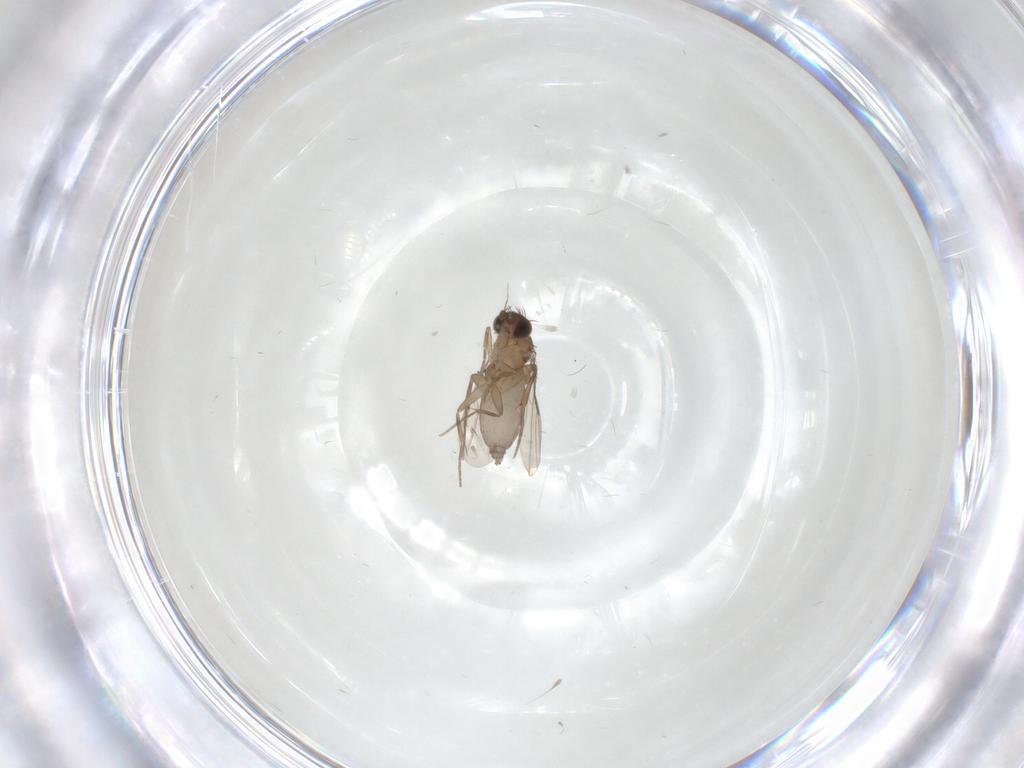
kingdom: Animalia
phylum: Arthropoda
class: Insecta
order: Diptera
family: Phoridae
